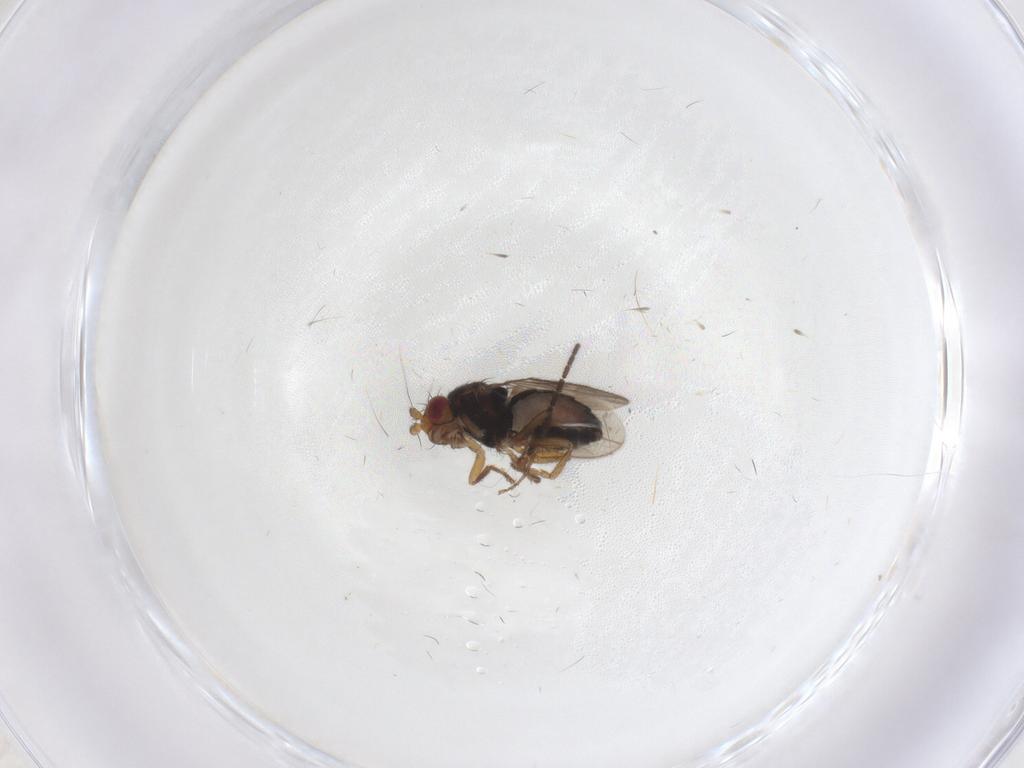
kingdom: Animalia
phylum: Arthropoda
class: Insecta
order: Diptera
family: Sphaeroceridae
